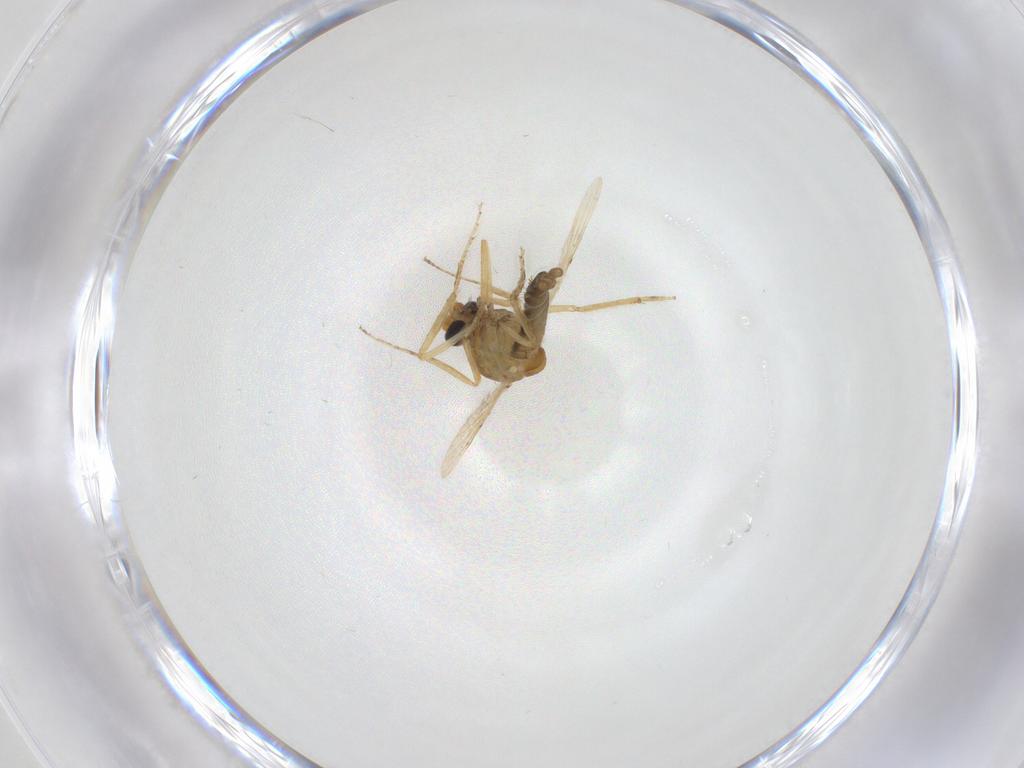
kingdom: Animalia
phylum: Arthropoda
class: Insecta
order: Diptera
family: Ceratopogonidae
